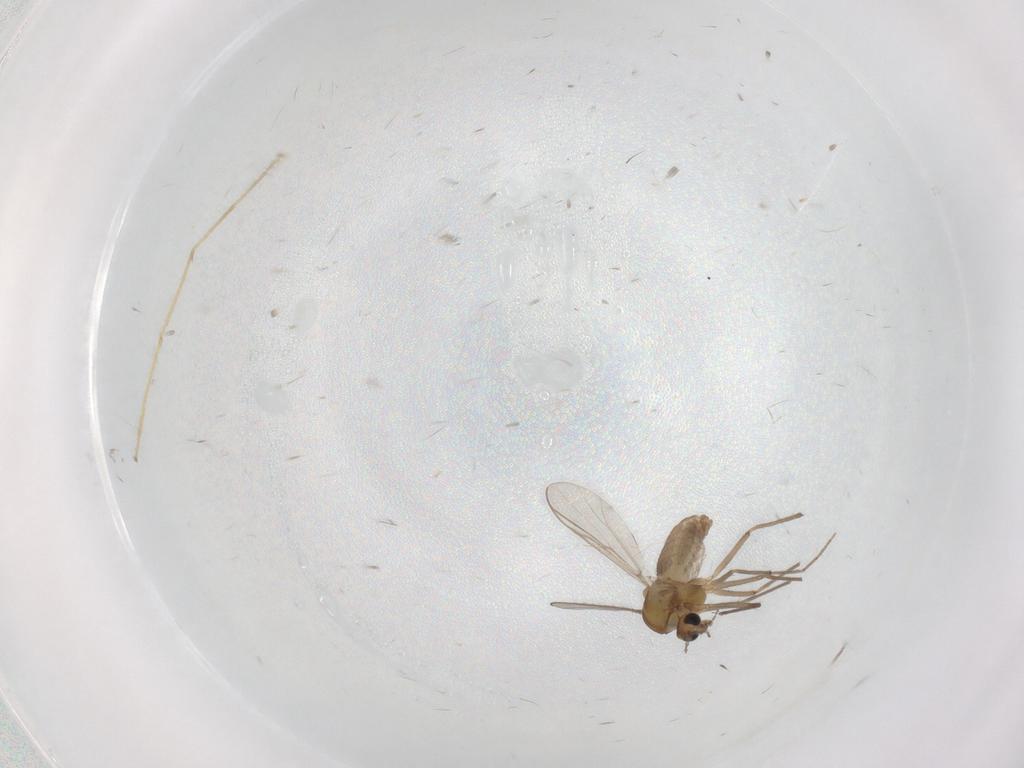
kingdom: Animalia
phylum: Arthropoda
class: Insecta
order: Diptera
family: Chironomidae
